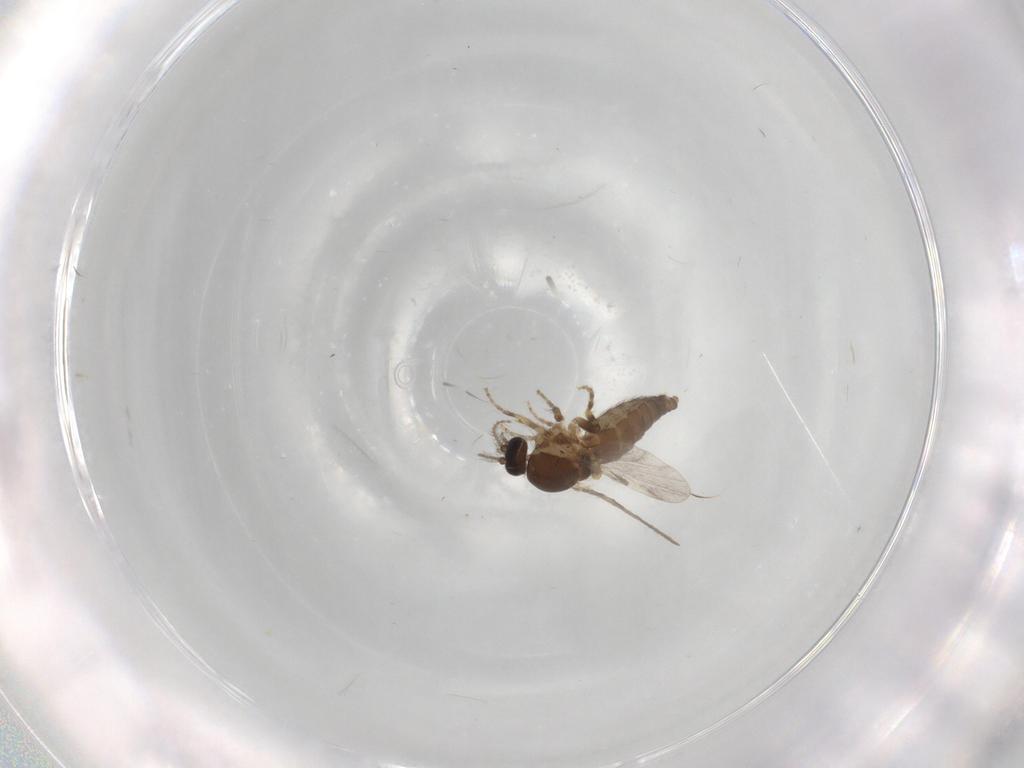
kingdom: Animalia
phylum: Arthropoda
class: Insecta
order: Diptera
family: Ceratopogonidae
